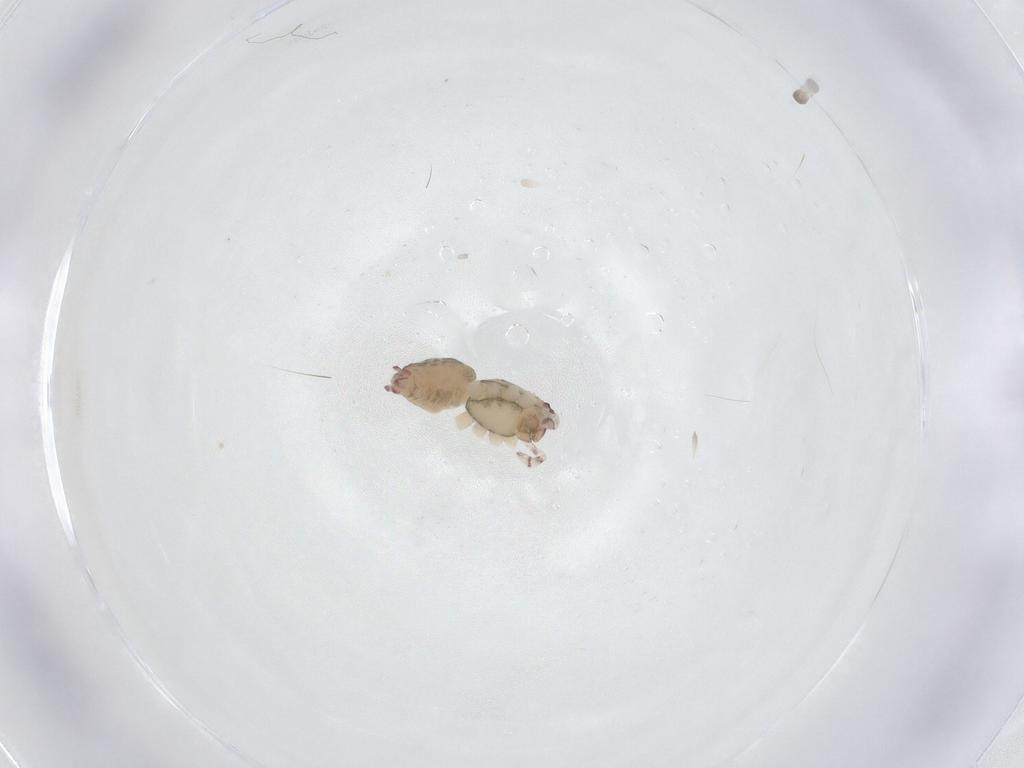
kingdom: Animalia
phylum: Arthropoda
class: Arachnida
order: Araneae
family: Anyphaenidae
